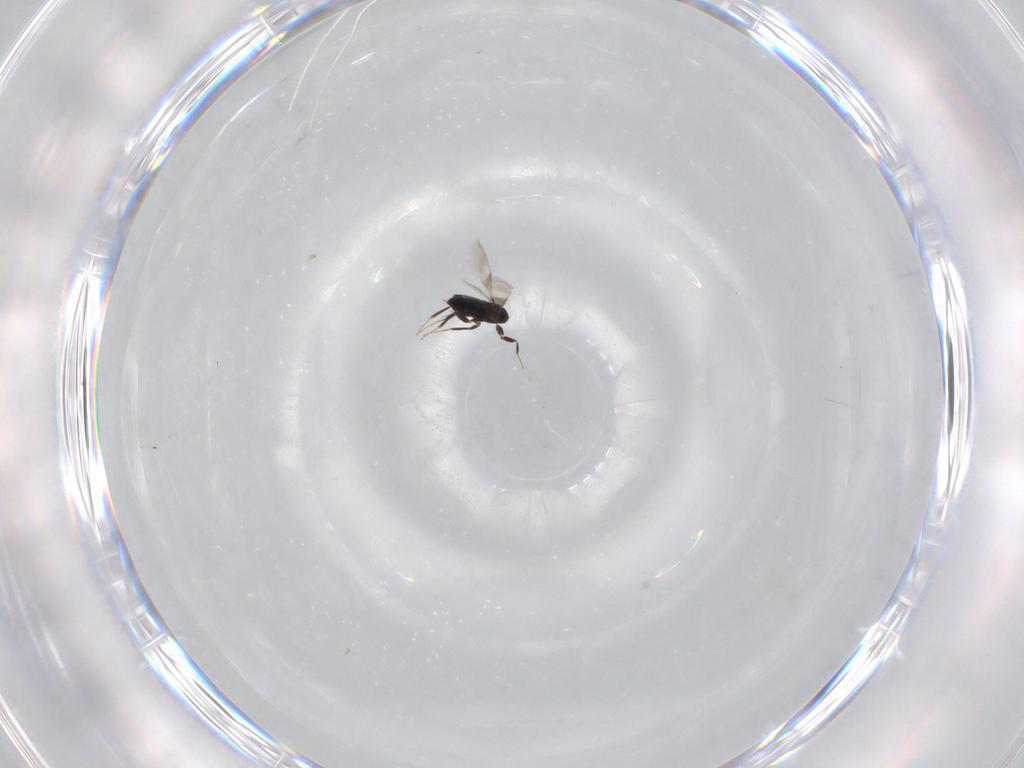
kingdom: Animalia
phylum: Arthropoda
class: Insecta
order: Hymenoptera
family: Signiphoridae
